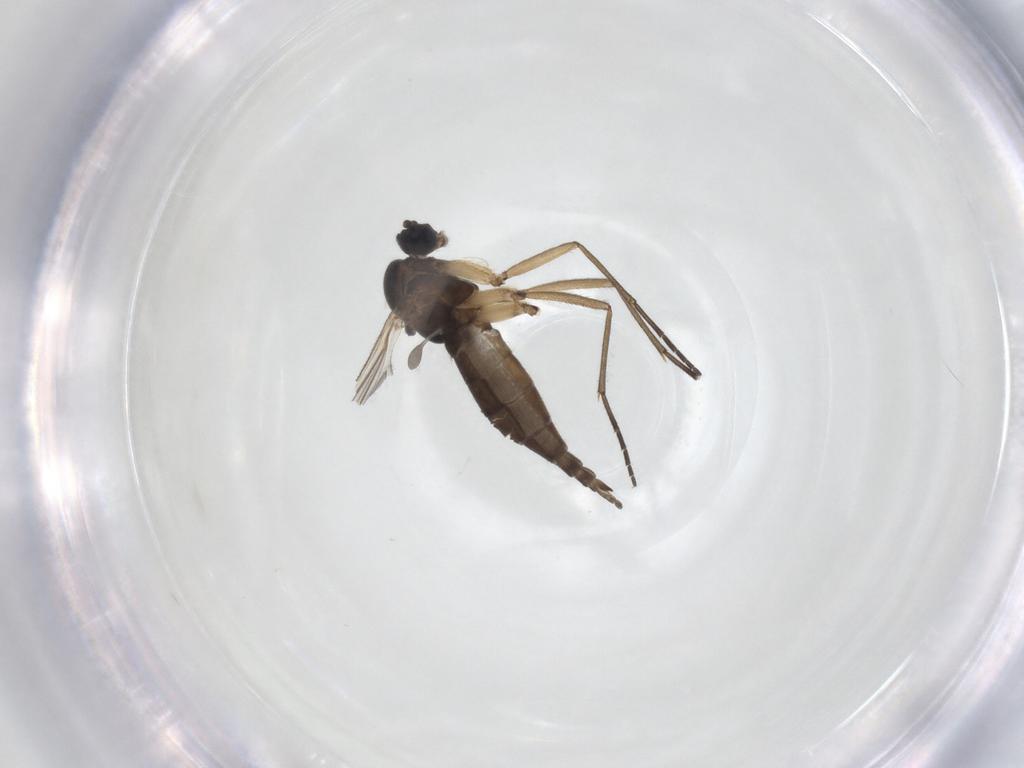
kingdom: Animalia
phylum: Arthropoda
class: Insecta
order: Diptera
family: Sciaridae
